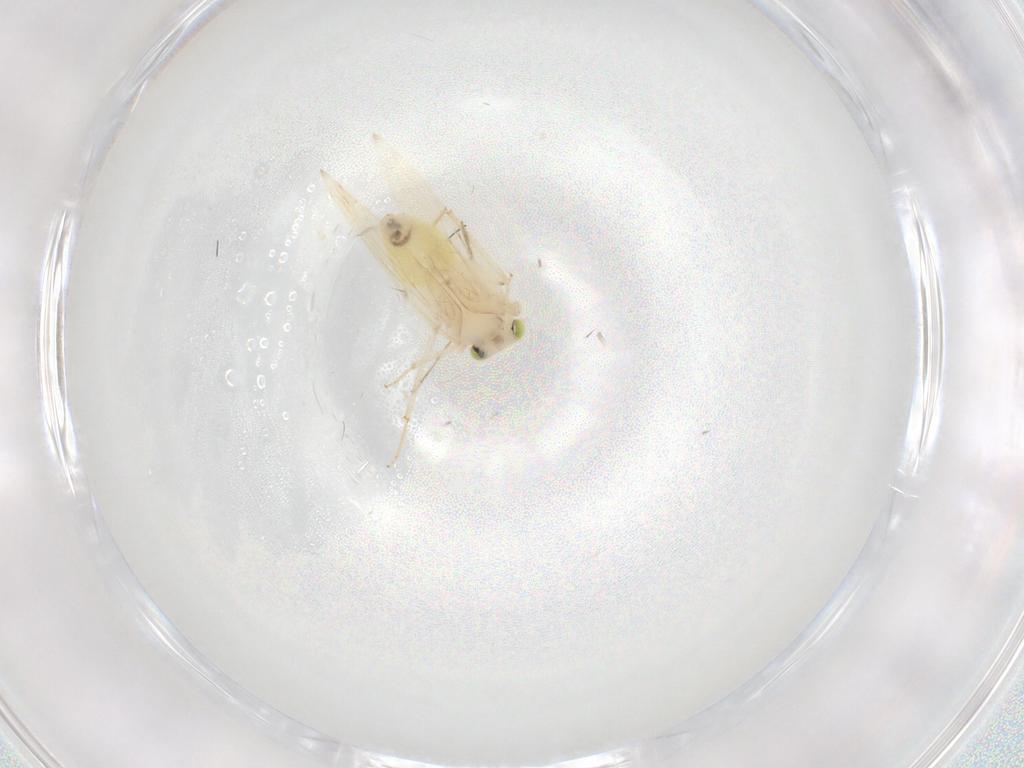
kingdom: Animalia
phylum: Arthropoda
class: Insecta
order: Psocodea
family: Lepidopsocidae
